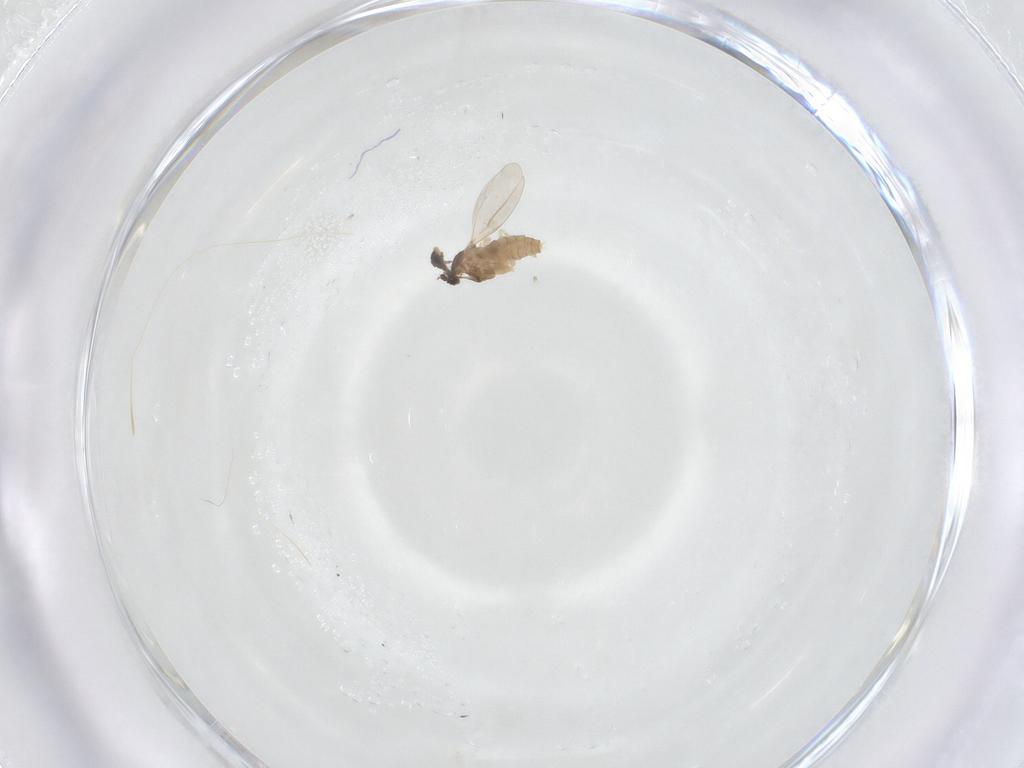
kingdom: Animalia
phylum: Arthropoda
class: Insecta
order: Diptera
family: Cecidomyiidae
